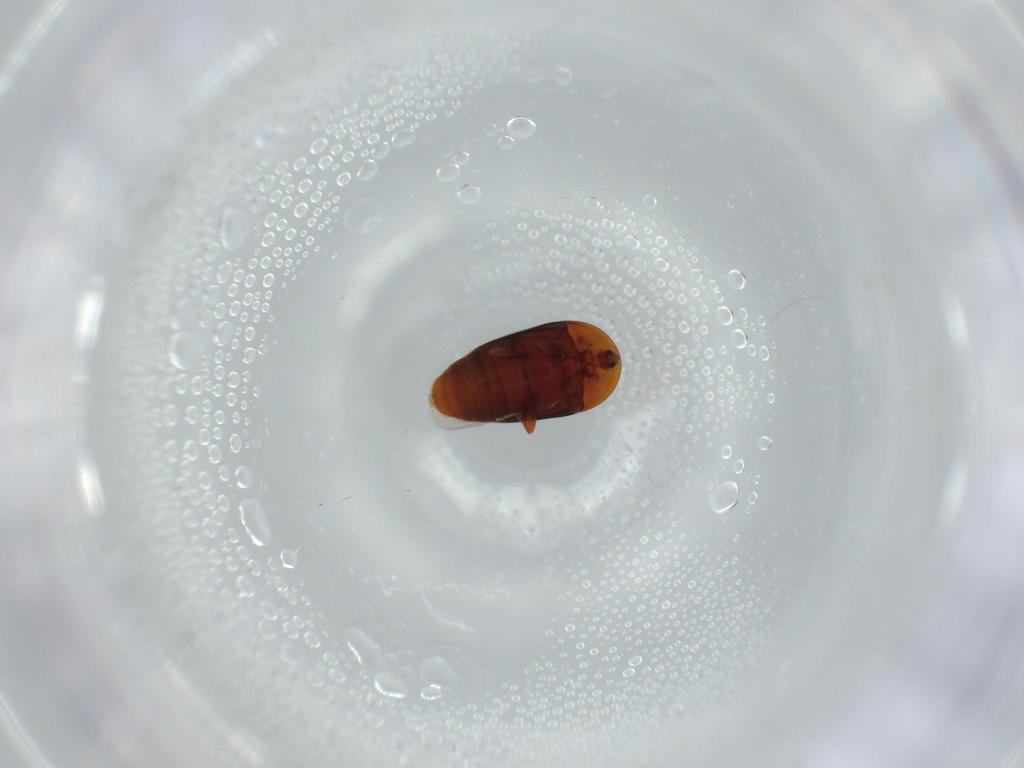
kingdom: Animalia
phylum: Arthropoda
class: Insecta
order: Coleoptera
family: Corylophidae
